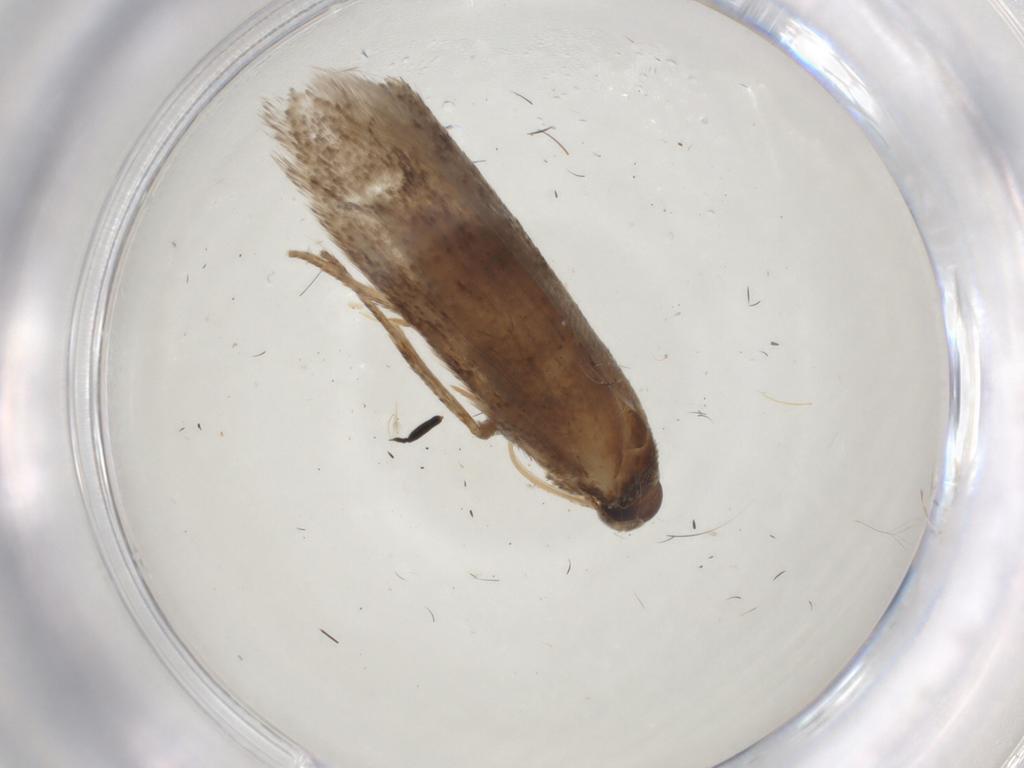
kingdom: Animalia
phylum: Arthropoda
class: Insecta
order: Lepidoptera
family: Coleophoridae
